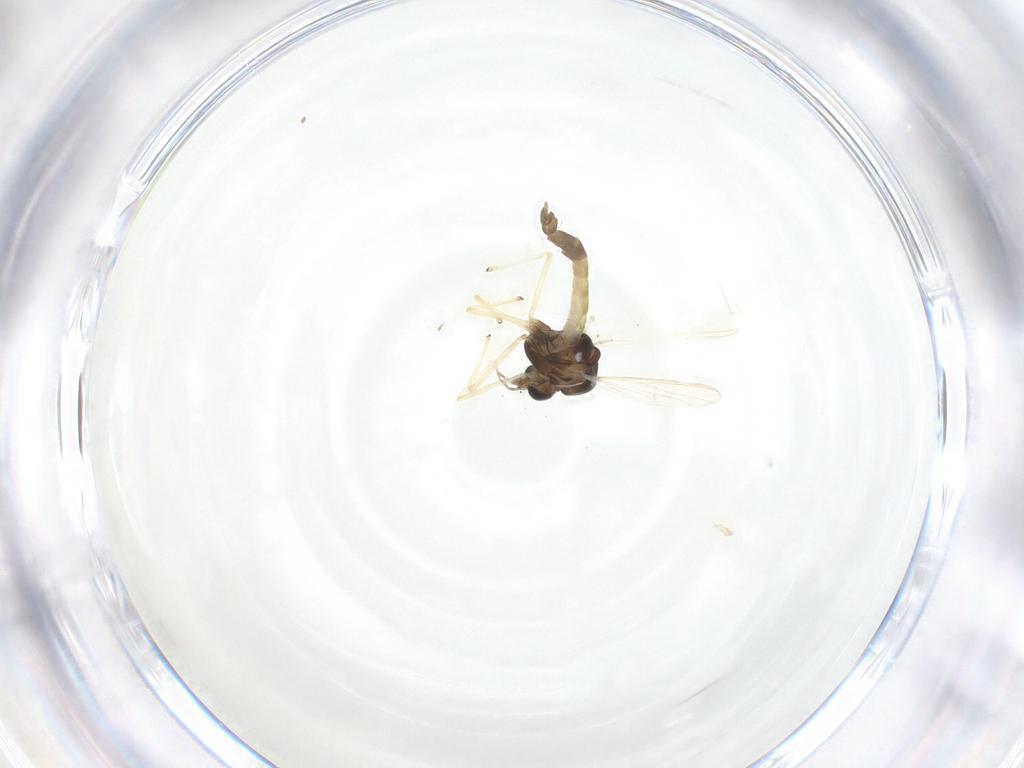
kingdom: Animalia
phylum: Arthropoda
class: Insecta
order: Diptera
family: Chironomidae
